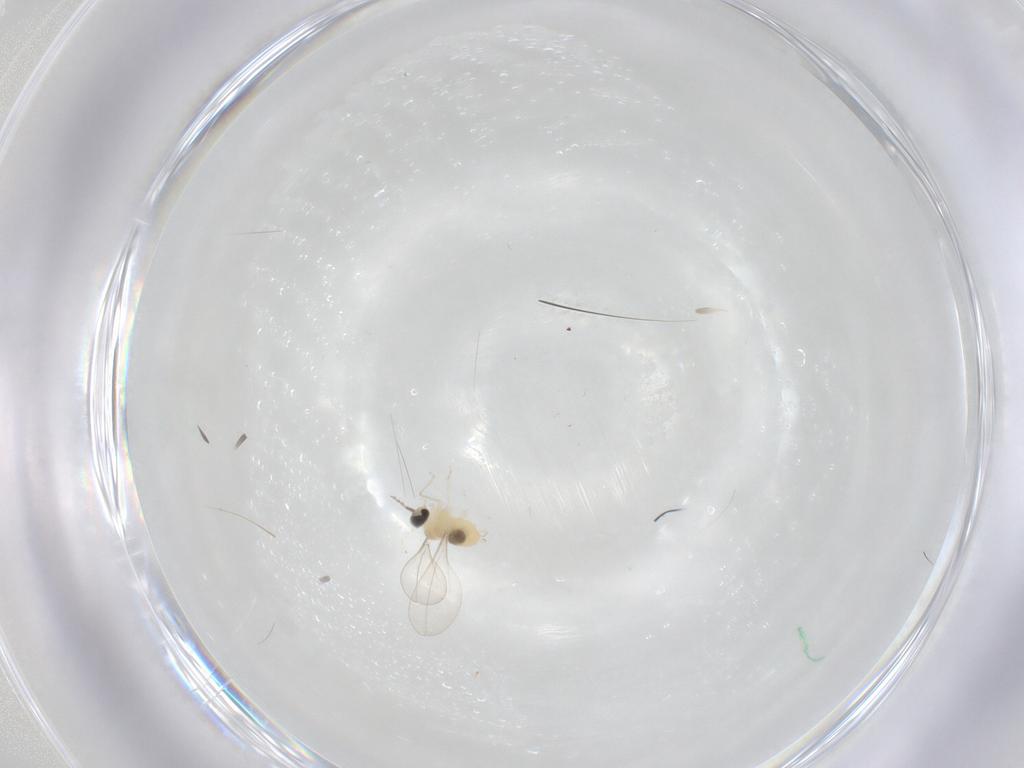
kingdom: Animalia
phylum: Arthropoda
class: Insecta
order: Diptera
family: Cecidomyiidae
